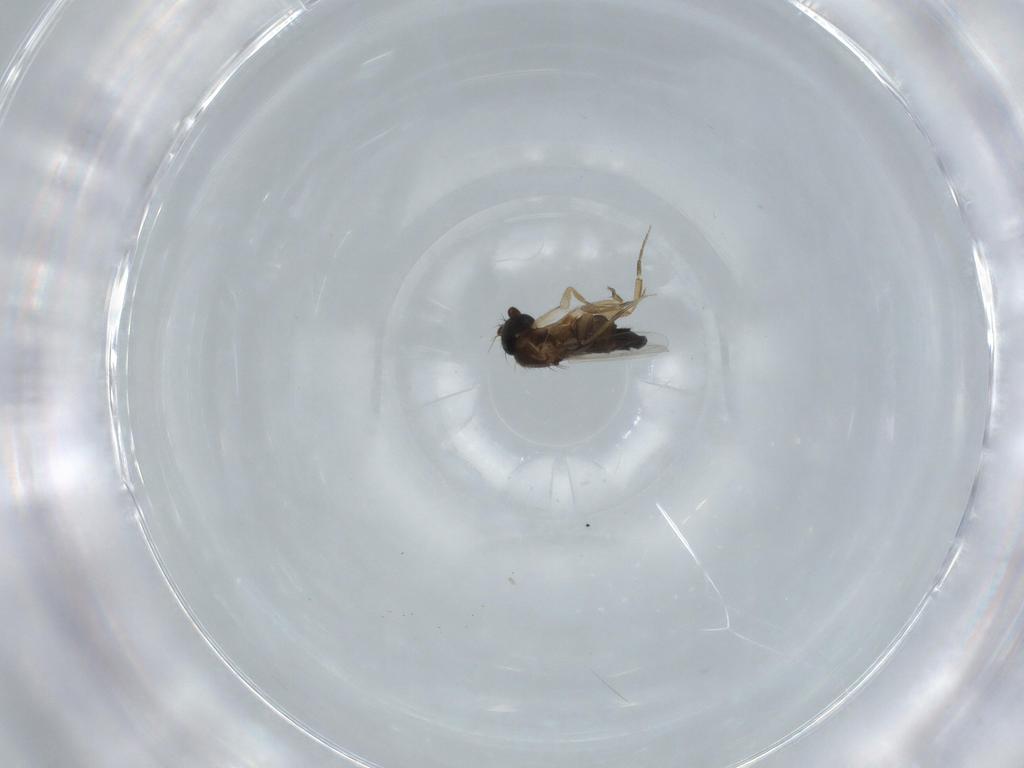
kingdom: Animalia
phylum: Arthropoda
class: Insecta
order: Diptera
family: Phoridae
